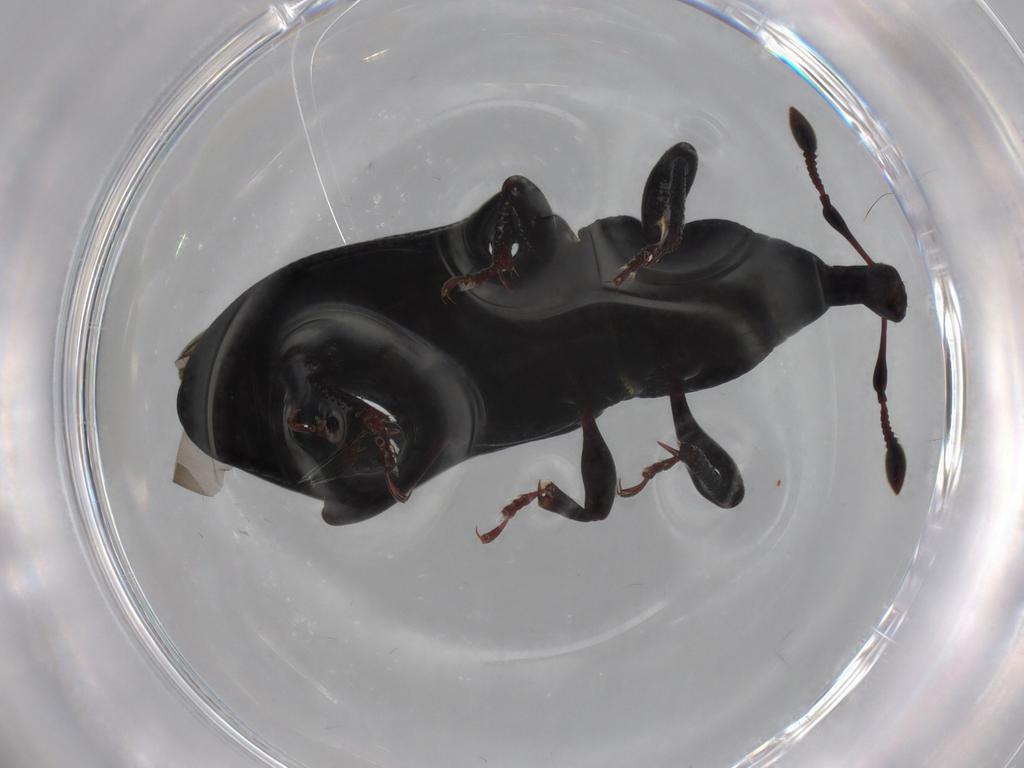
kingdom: Animalia
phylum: Arthropoda
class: Insecta
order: Coleoptera
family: Curculionidae
